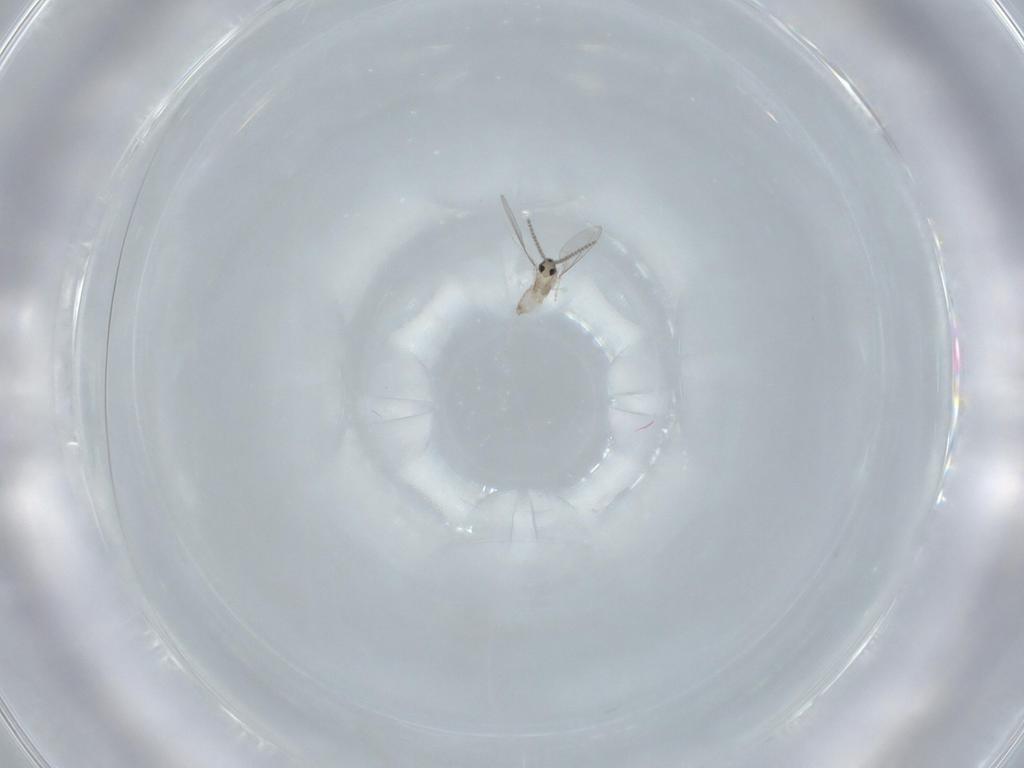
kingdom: Animalia
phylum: Arthropoda
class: Insecta
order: Diptera
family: Cecidomyiidae
